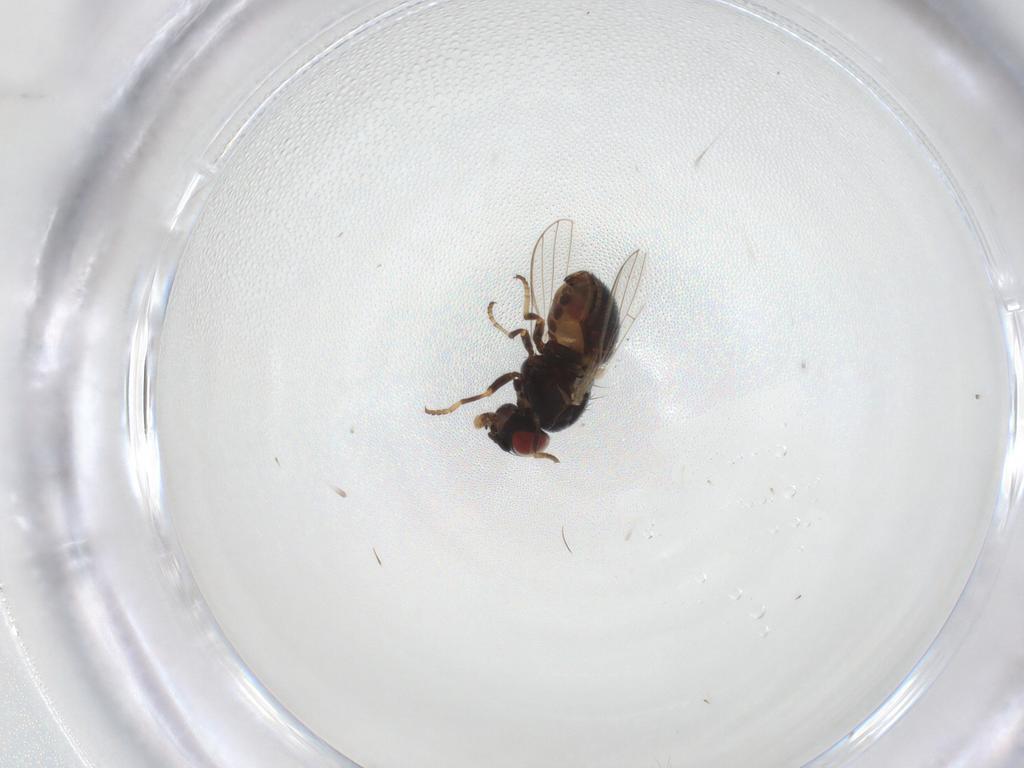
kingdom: Animalia
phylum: Arthropoda
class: Insecta
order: Diptera
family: Chamaemyiidae
